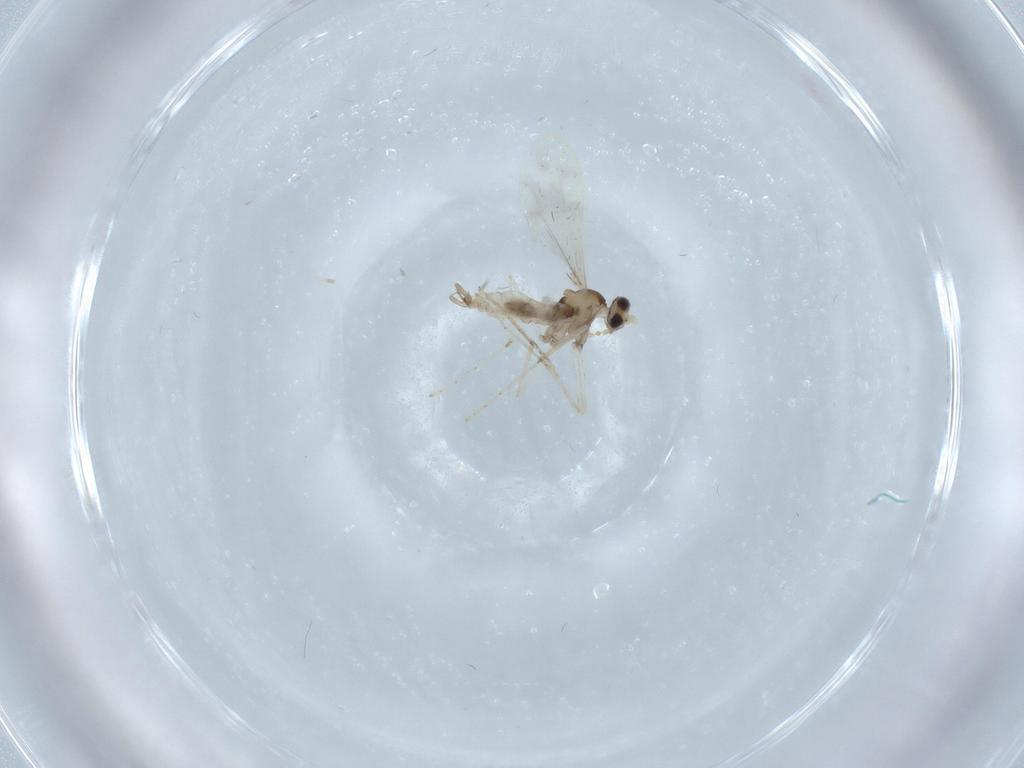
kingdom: Animalia
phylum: Arthropoda
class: Insecta
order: Diptera
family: Cecidomyiidae
